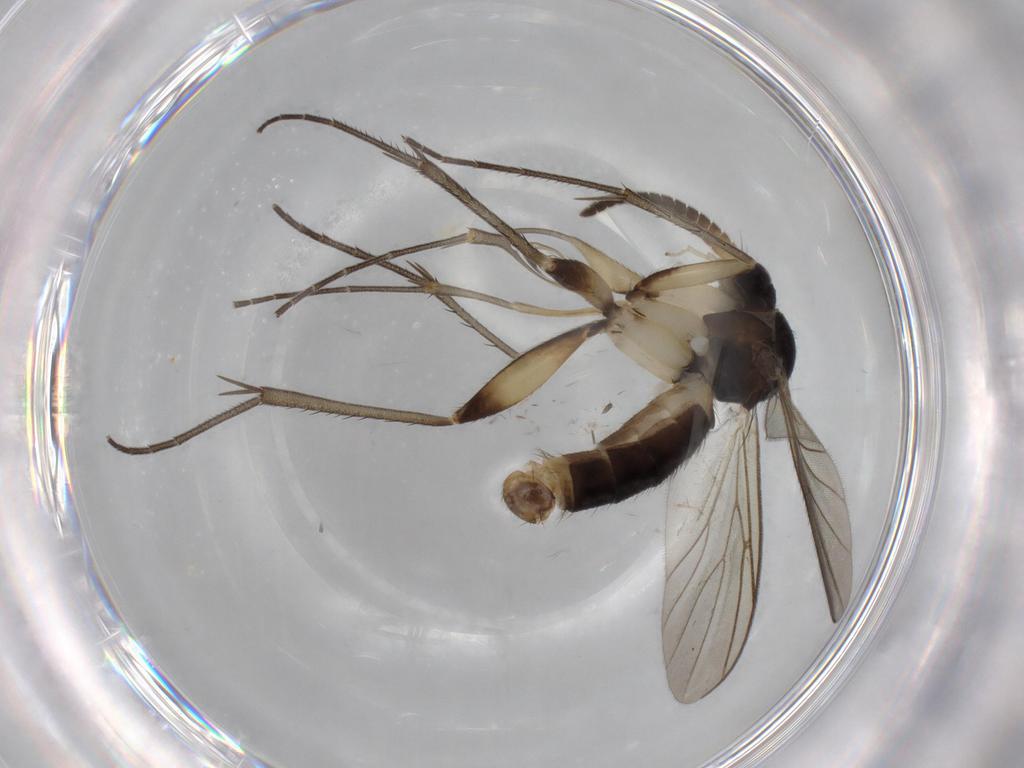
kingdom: Animalia
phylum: Arthropoda
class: Insecta
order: Diptera
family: Mycetophilidae
